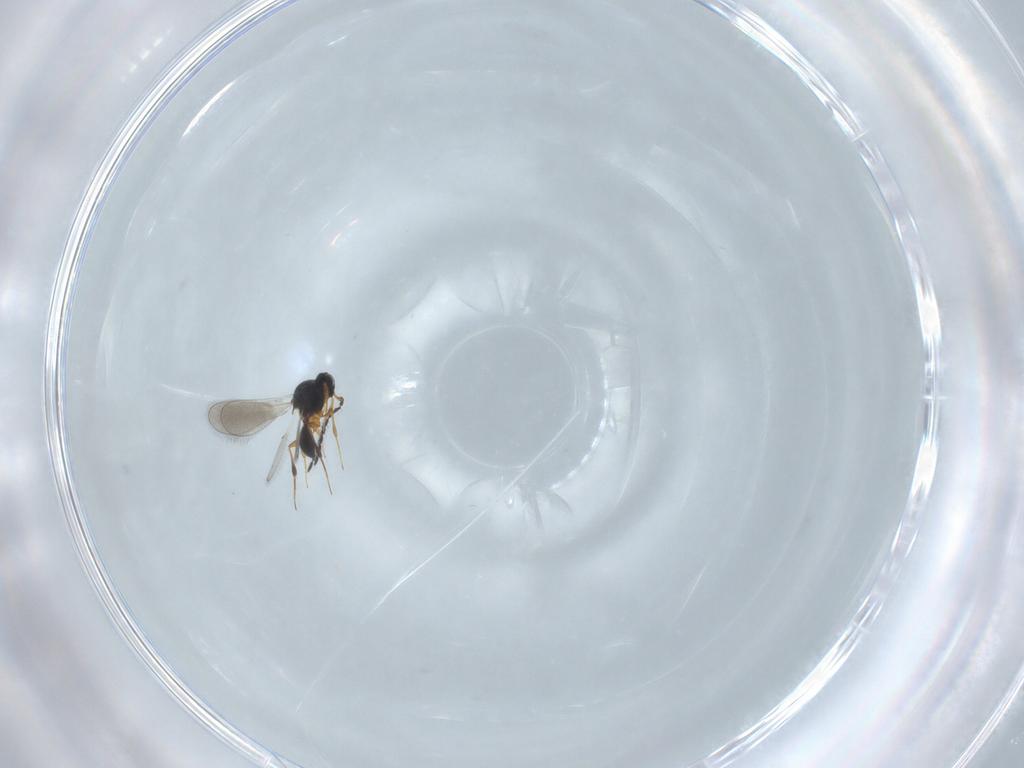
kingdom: Animalia
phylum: Arthropoda
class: Insecta
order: Hymenoptera
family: Platygastridae
